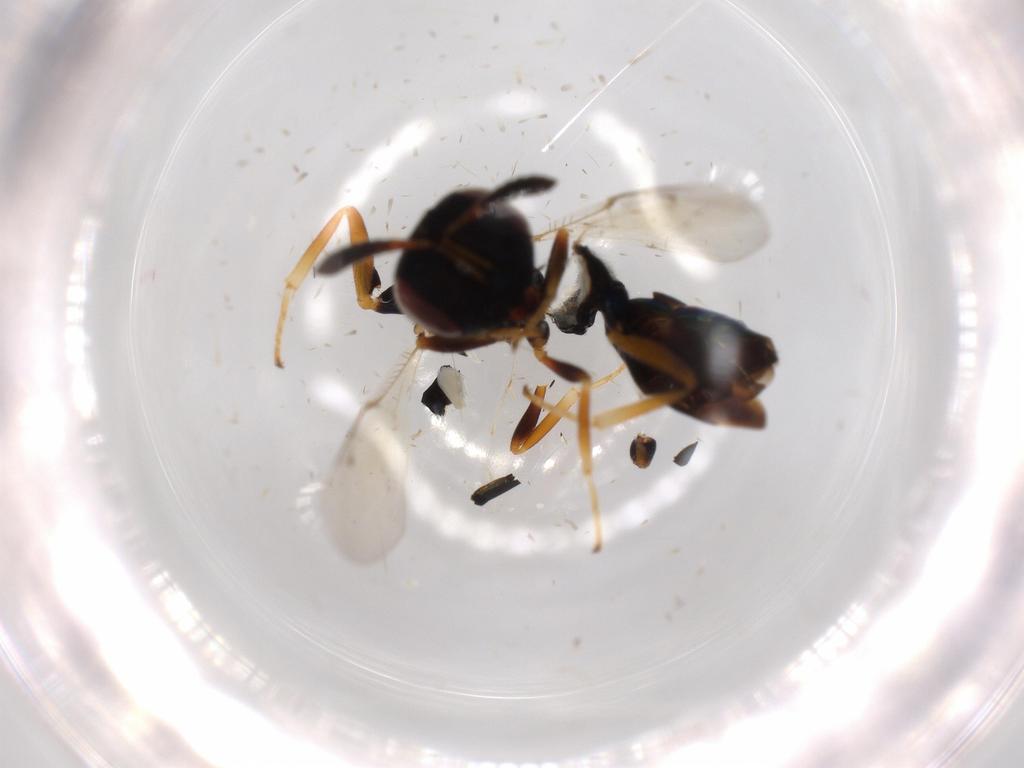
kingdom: Animalia
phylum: Arthropoda
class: Insecta
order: Hymenoptera
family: Agaonidae
